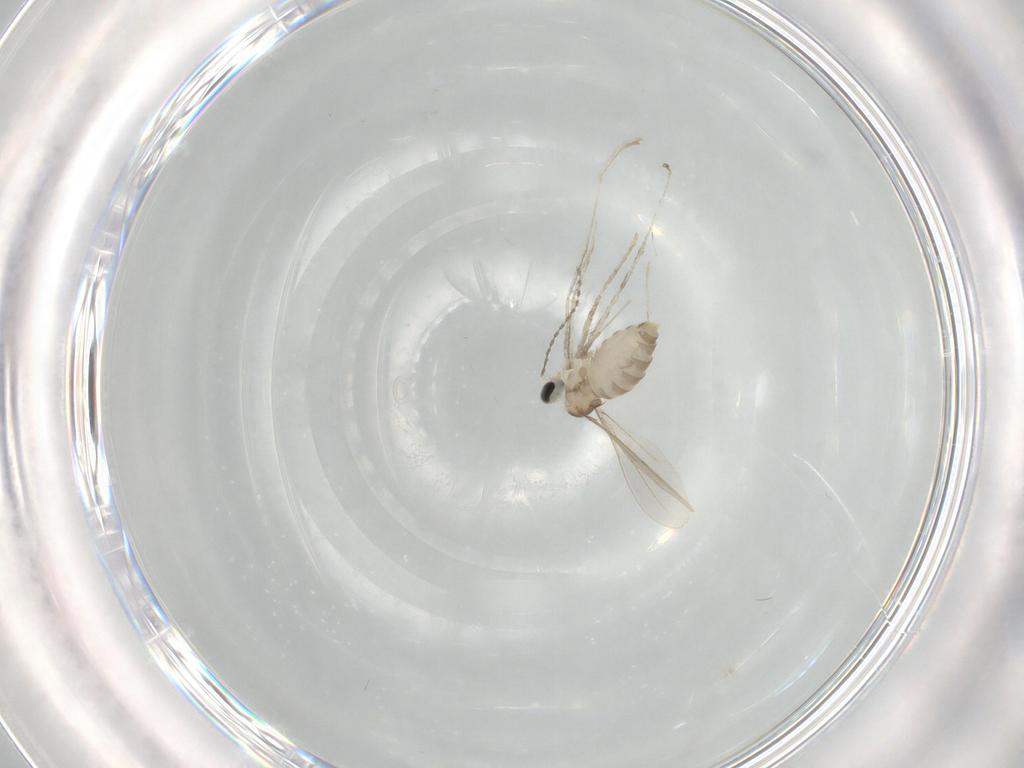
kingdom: Animalia
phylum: Arthropoda
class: Insecta
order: Diptera
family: Cecidomyiidae
